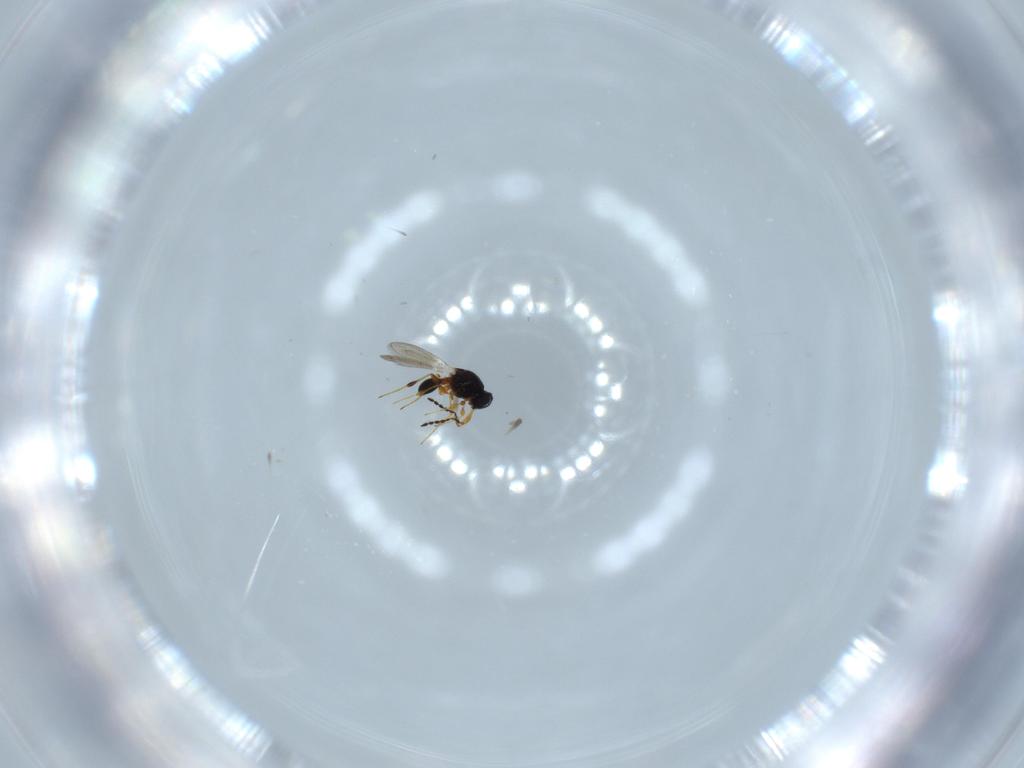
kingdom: Animalia
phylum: Arthropoda
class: Insecta
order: Hymenoptera
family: Platygastridae
